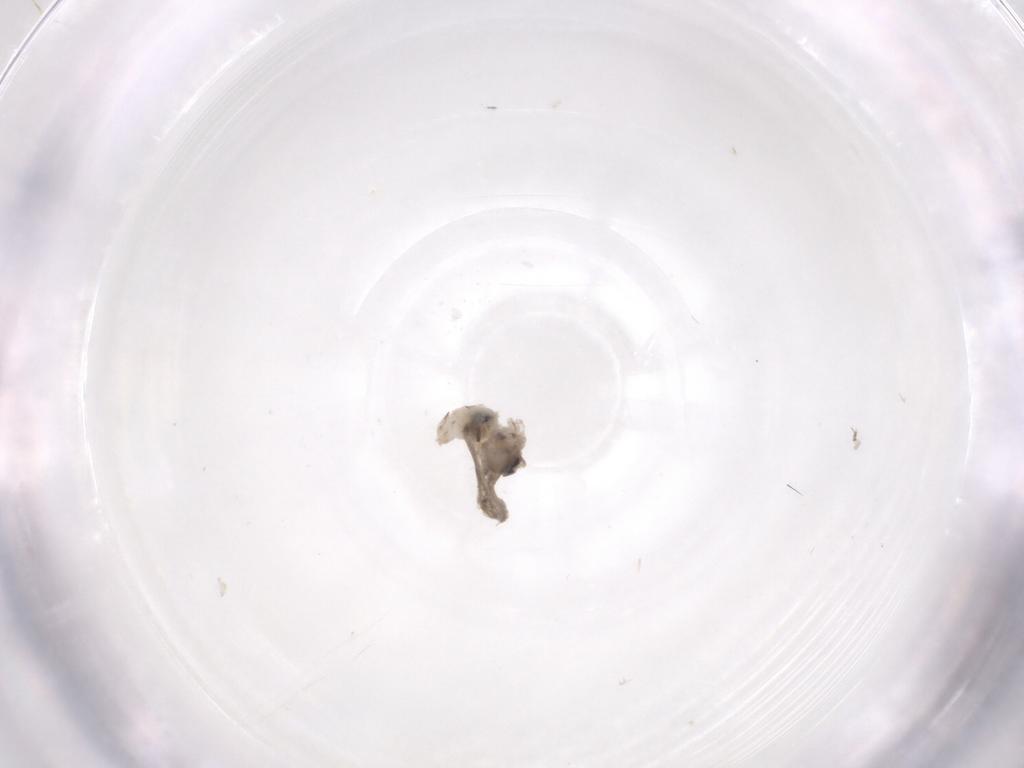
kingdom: Animalia
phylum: Arthropoda
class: Insecta
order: Diptera
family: Cecidomyiidae
